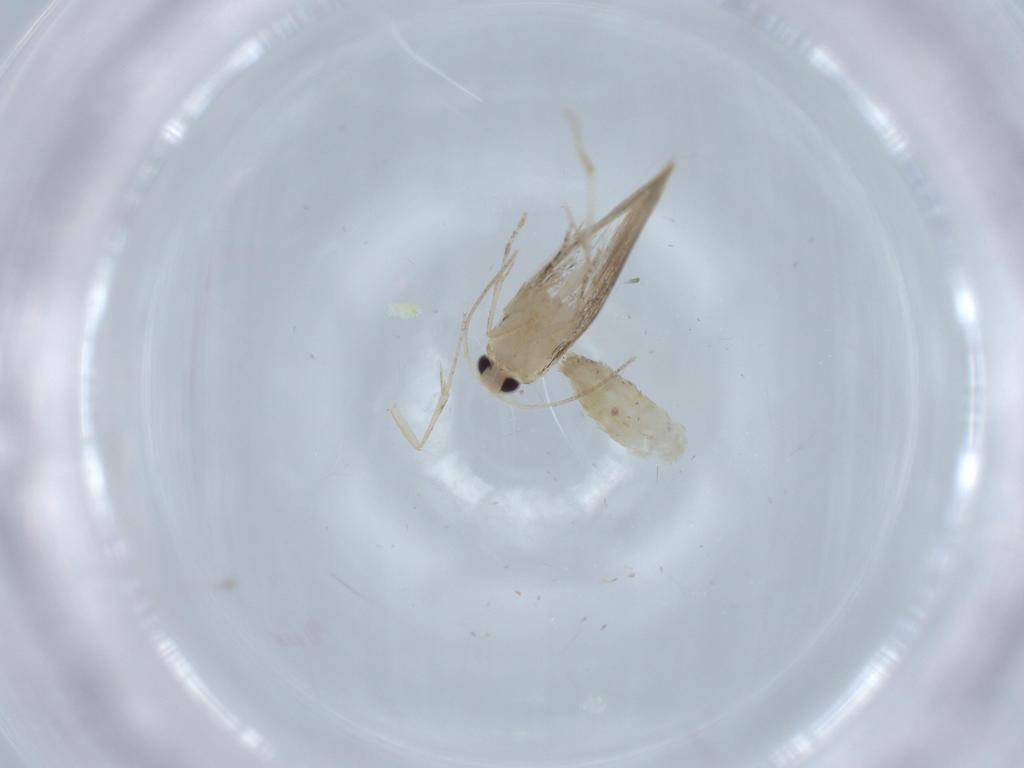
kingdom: Animalia
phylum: Arthropoda
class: Insecta
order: Lepidoptera
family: Bucculatricidae
